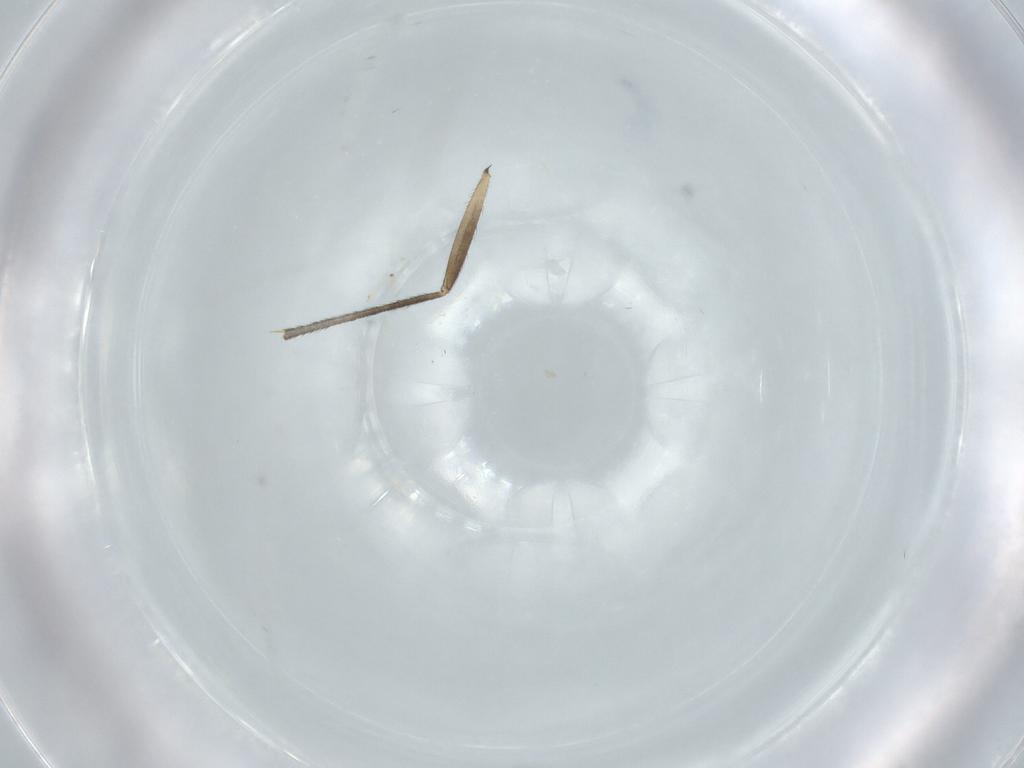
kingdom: Animalia
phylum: Arthropoda
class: Insecta
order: Diptera
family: Chironomidae
